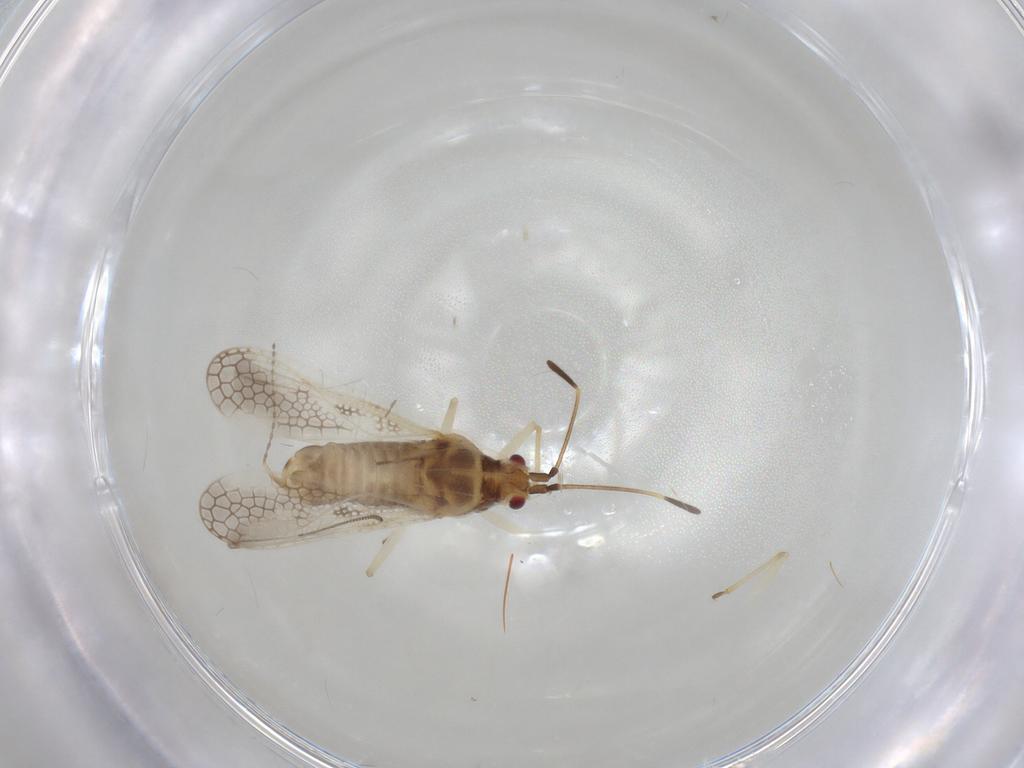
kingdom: Animalia
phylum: Arthropoda
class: Insecta
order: Hemiptera
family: Tingidae
